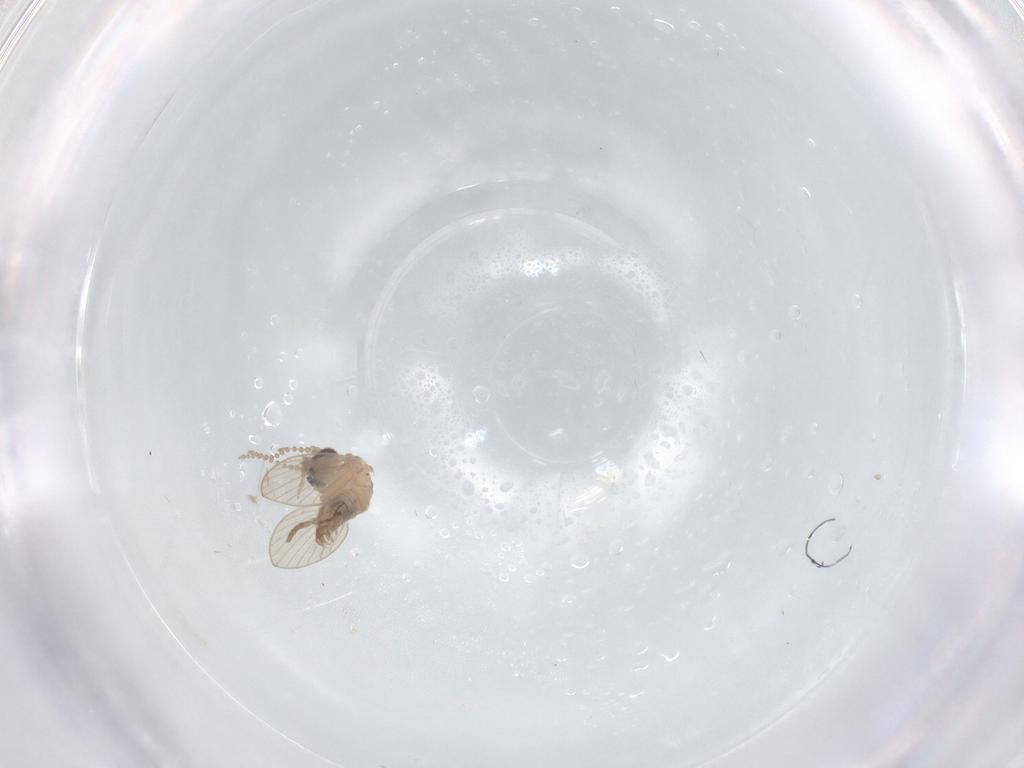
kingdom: Animalia
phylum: Arthropoda
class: Insecta
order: Diptera
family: Psychodidae
